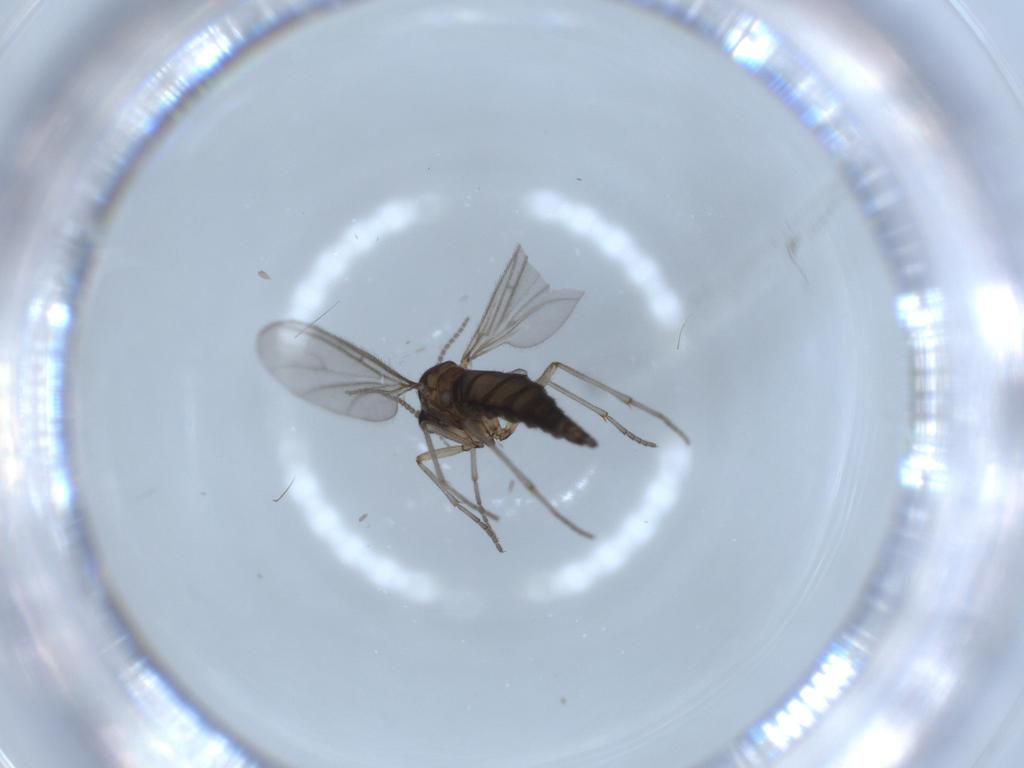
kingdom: Animalia
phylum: Arthropoda
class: Insecta
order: Diptera
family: Sciaridae
